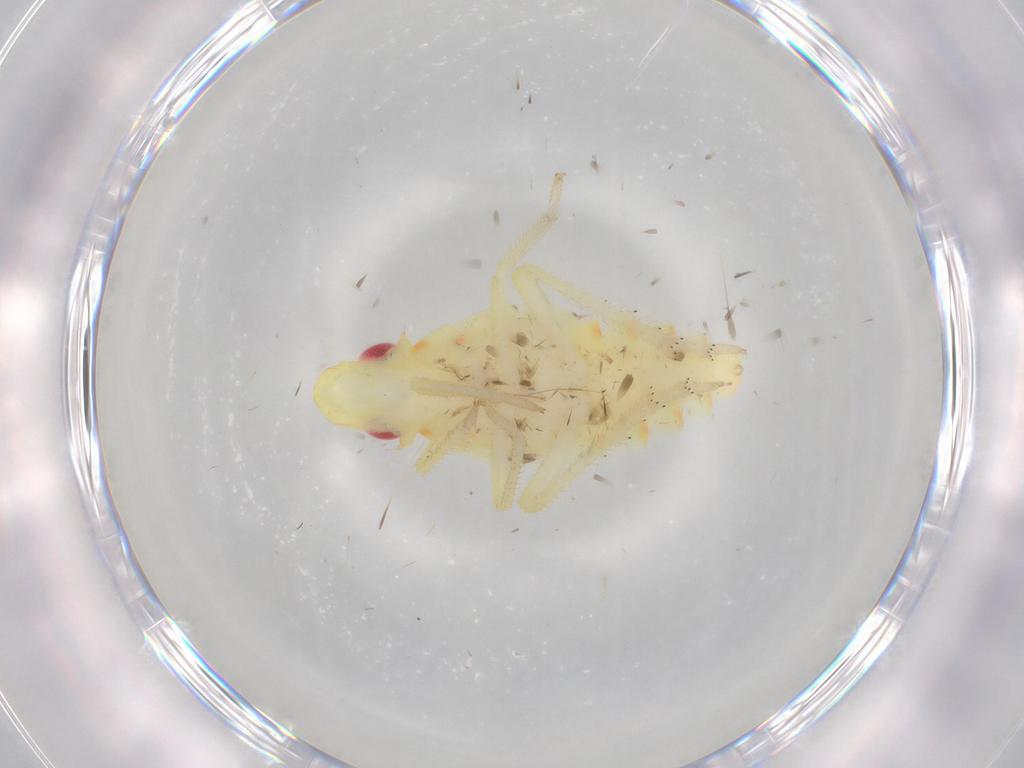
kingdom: Animalia
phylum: Arthropoda
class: Insecta
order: Hemiptera
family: Tropiduchidae
